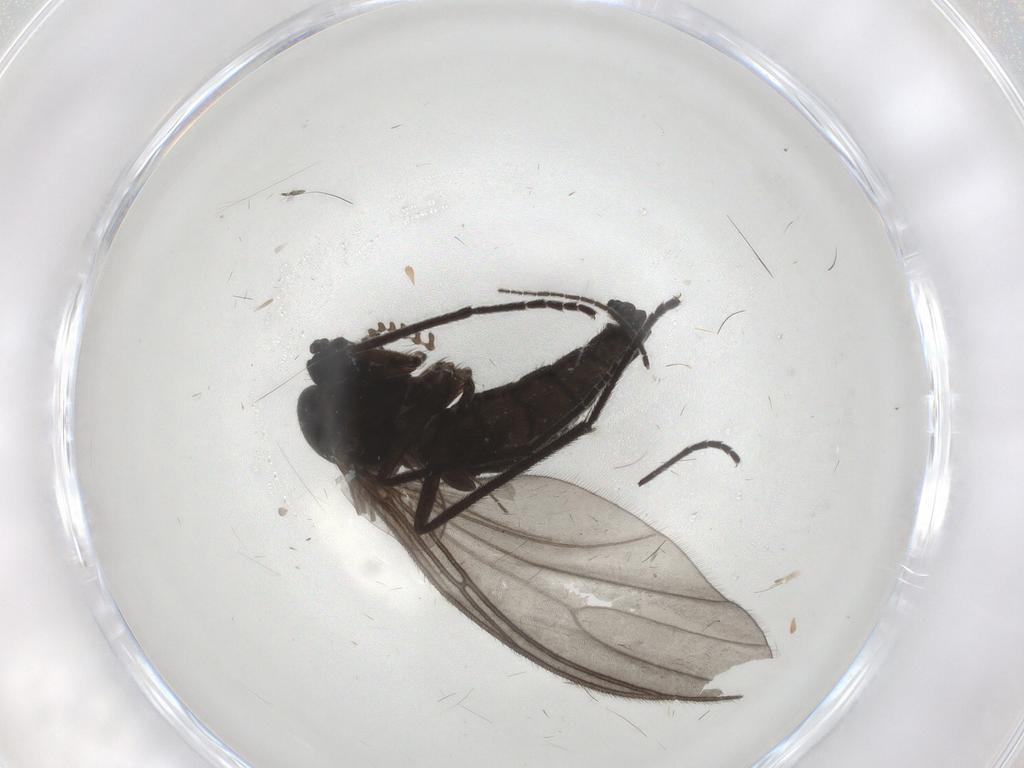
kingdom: Animalia
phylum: Arthropoda
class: Insecta
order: Diptera
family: Sciaridae
